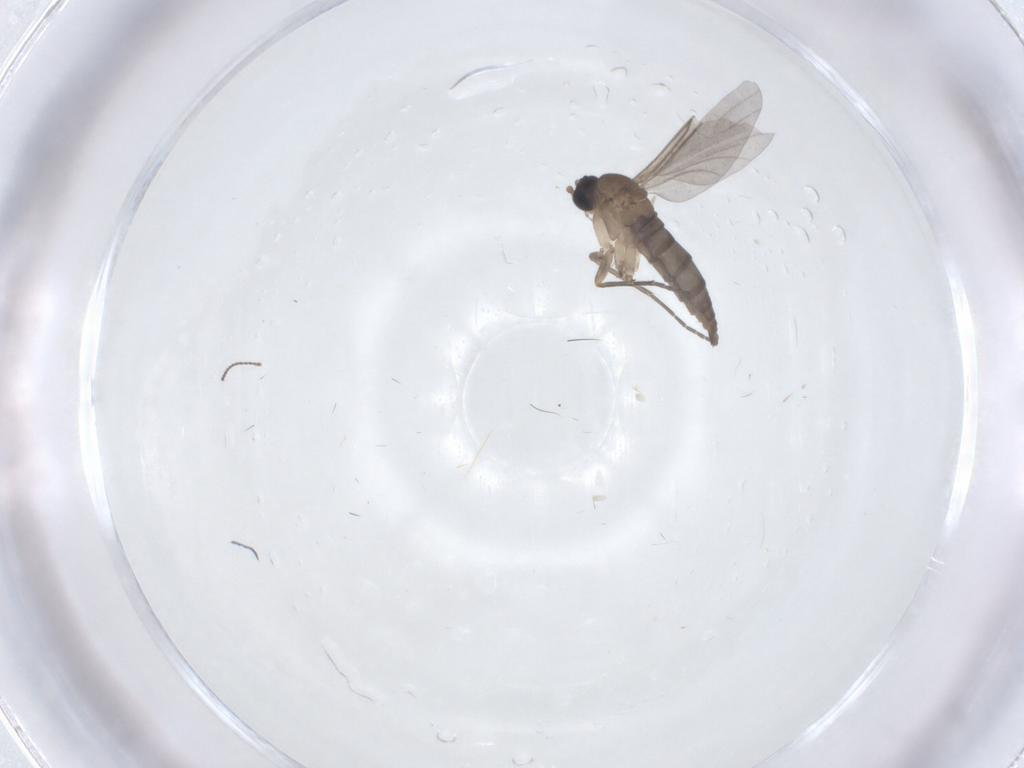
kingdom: Animalia
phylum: Arthropoda
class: Insecta
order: Diptera
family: Ceratopogonidae
